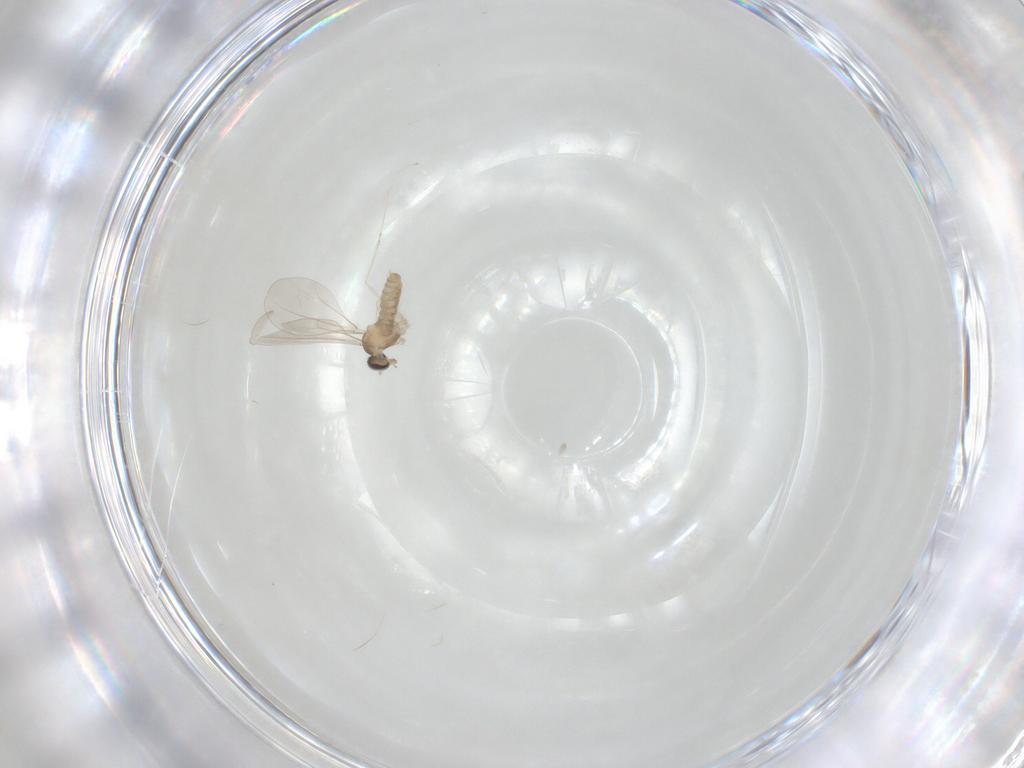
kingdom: Animalia
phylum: Arthropoda
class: Insecta
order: Diptera
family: Cecidomyiidae
